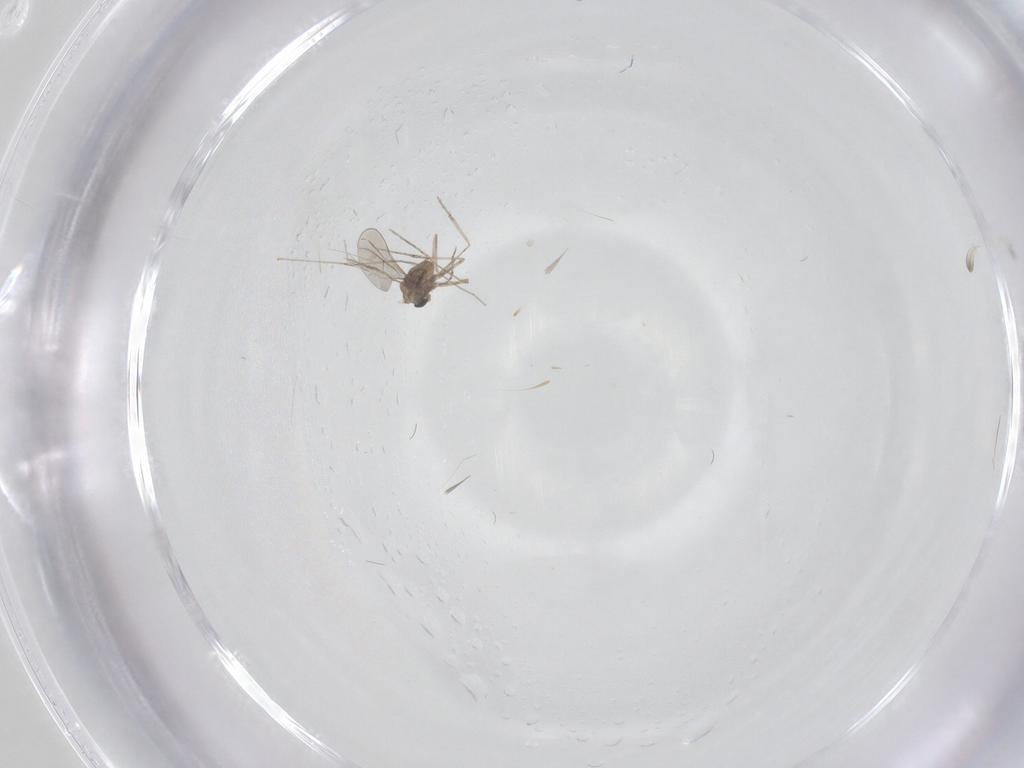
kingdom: Animalia
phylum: Arthropoda
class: Insecta
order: Diptera
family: Cecidomyiidae
